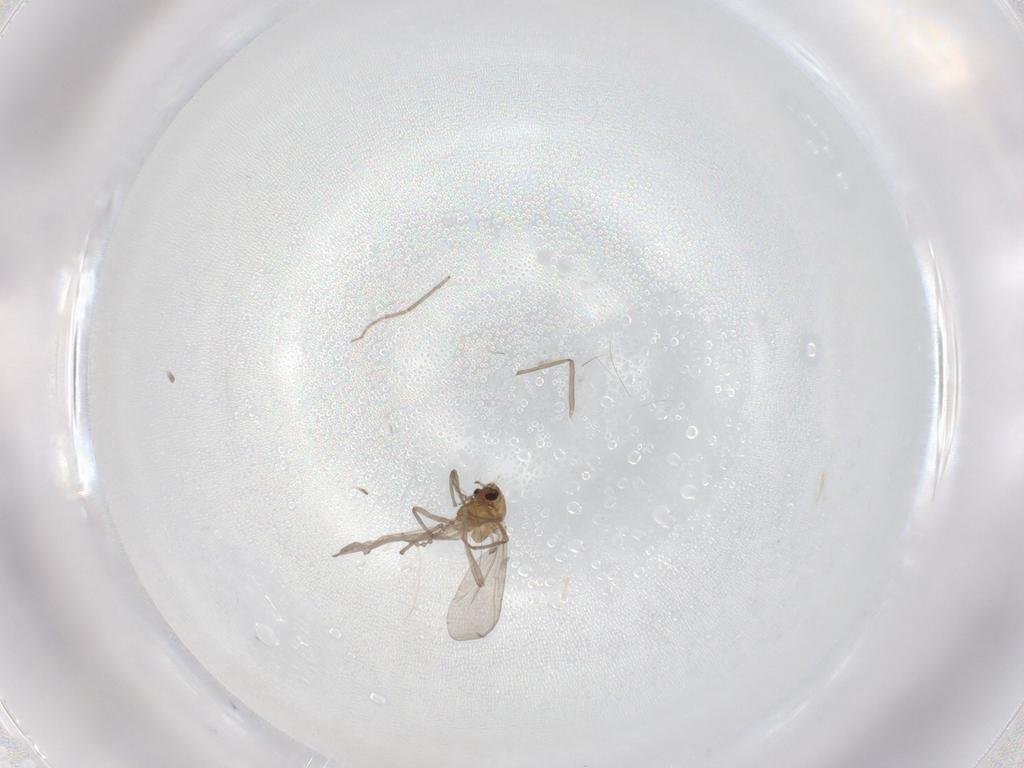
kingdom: Animalia
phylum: Arthropoda
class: Insecta
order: Diptera
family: Chironomidae
